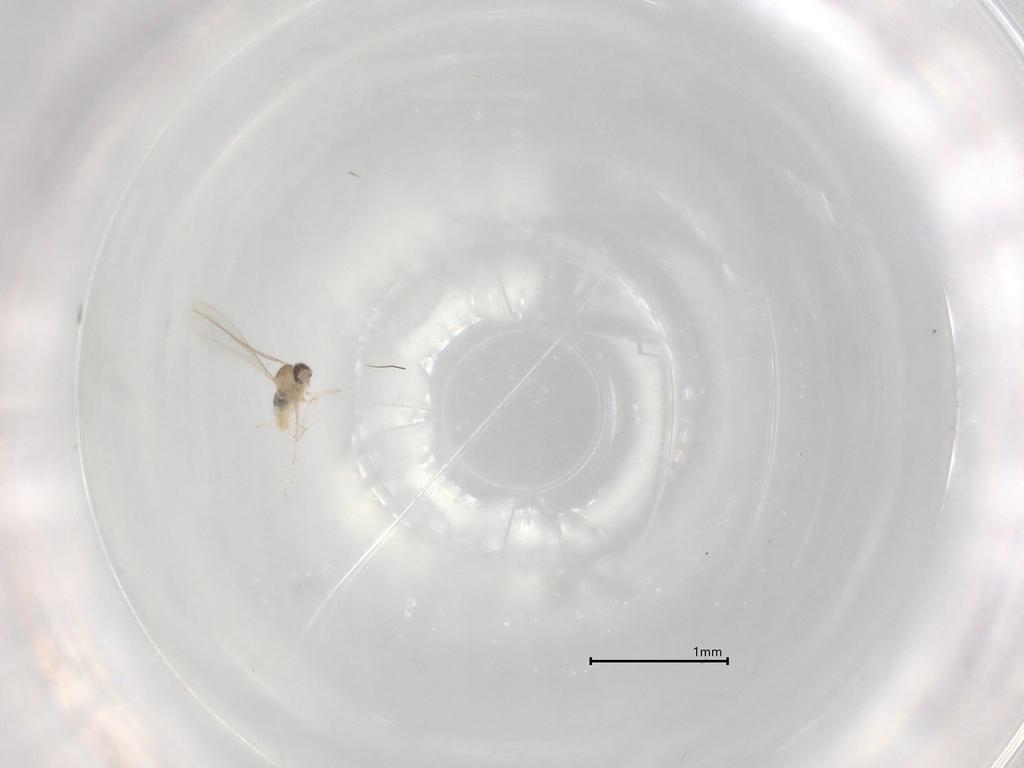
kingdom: Animalia
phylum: Arthropoda
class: Insecta
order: Diptera
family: Cecidomyiidae
